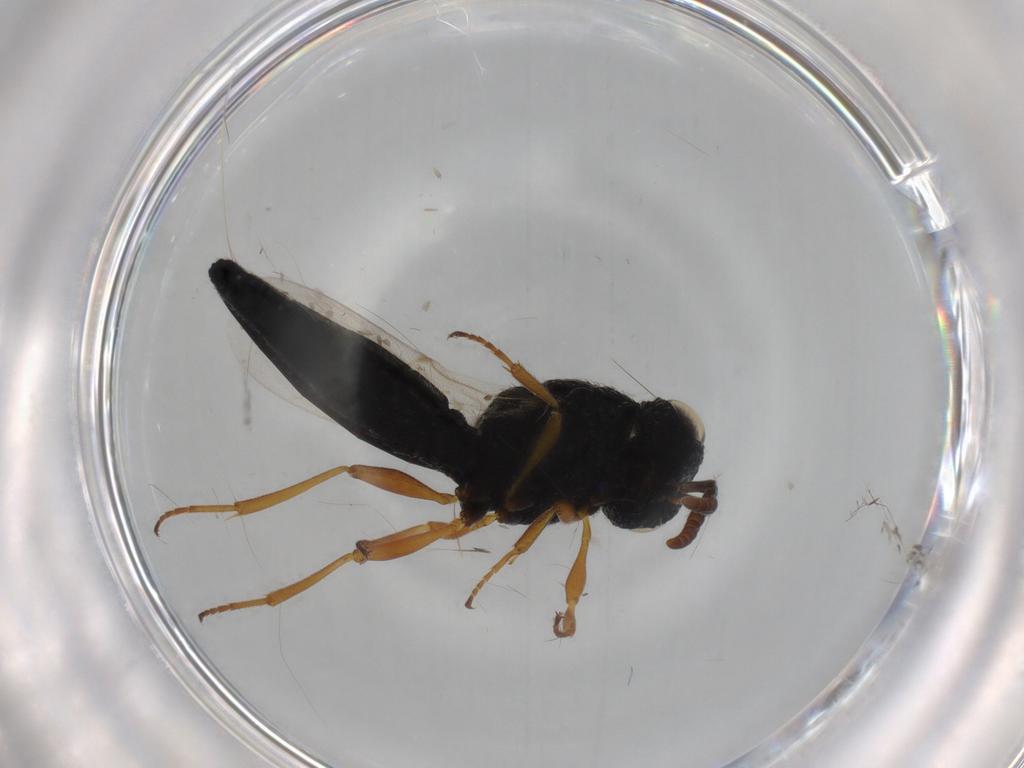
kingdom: Animalia
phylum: Arthropoda
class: Insecta
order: Hymenoptera
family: Scelionidae
